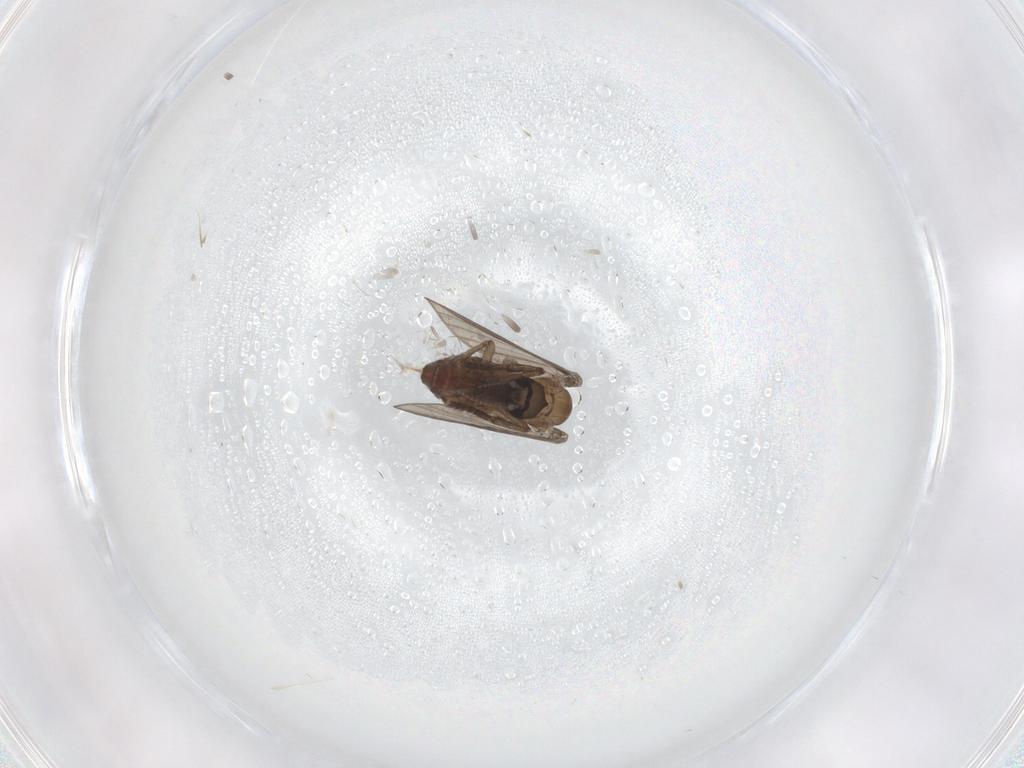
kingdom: Animalia
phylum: Arthropoda
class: Insecta
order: Diptera
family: Psychodidae
